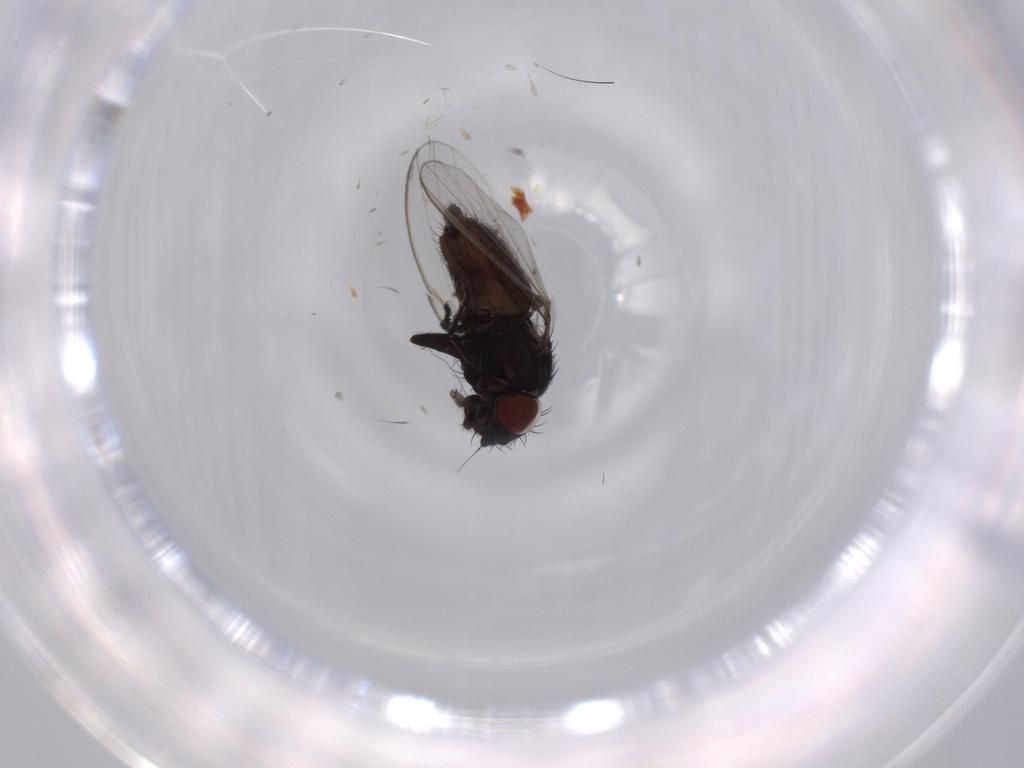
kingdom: Animalia
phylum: Arthropoda
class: Insecta
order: Diptera
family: Milichiidae
